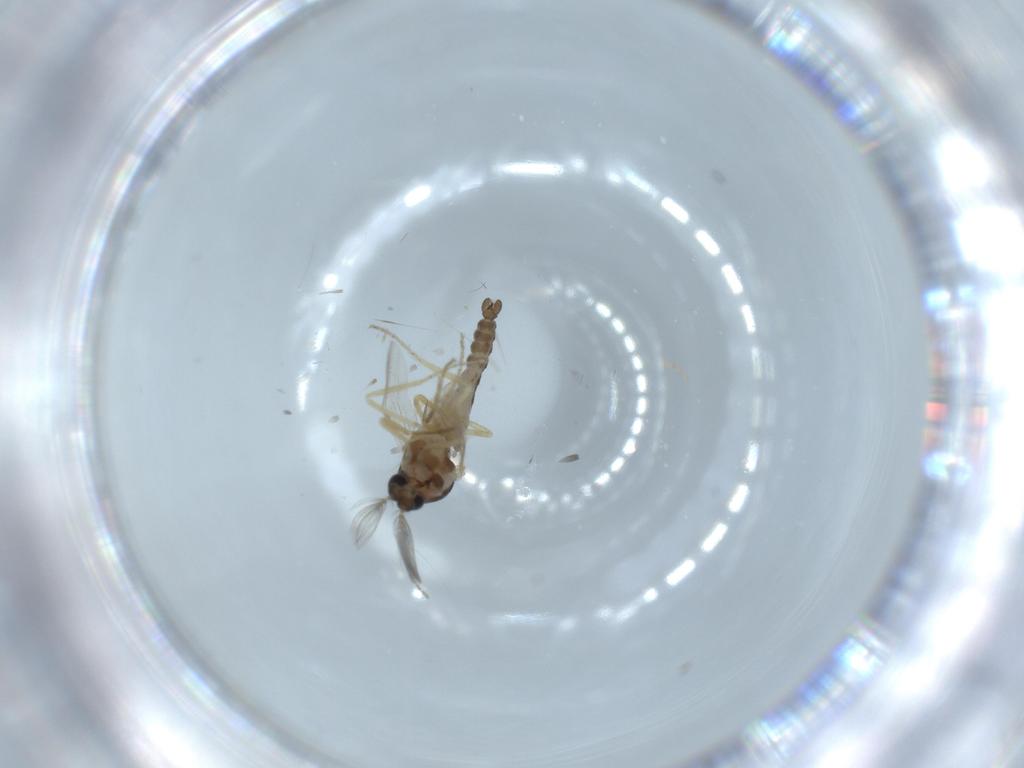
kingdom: Animalia
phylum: Arthropoda
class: Insecta
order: Diptera
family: Ceratopogonidae
